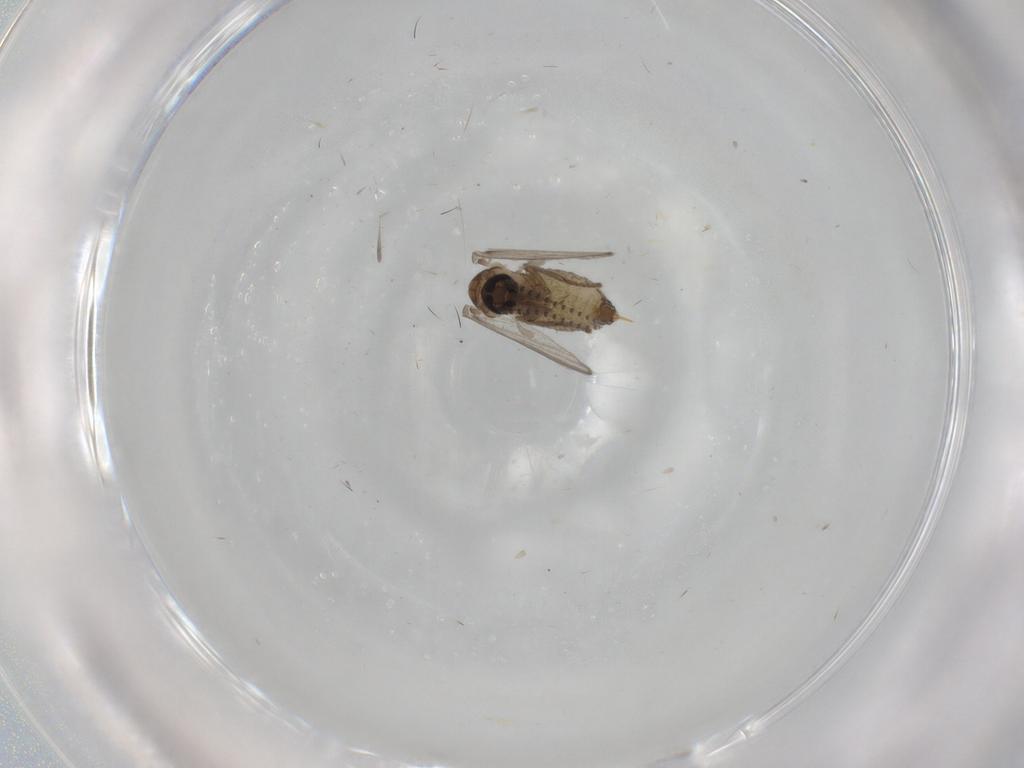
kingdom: Animalia
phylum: Arthropoda
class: Insecta
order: Diptera
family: Psychodidae
